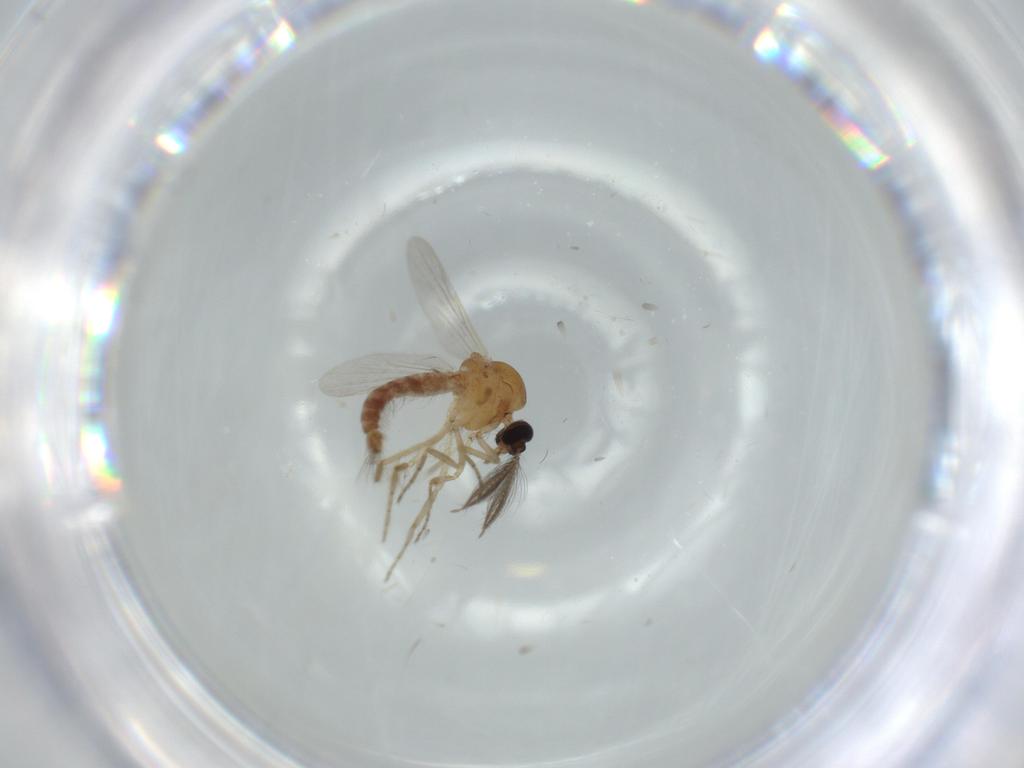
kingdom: Animalia
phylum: Arthropoda
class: Insecta
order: Diptera
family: Ceratopogonidae
